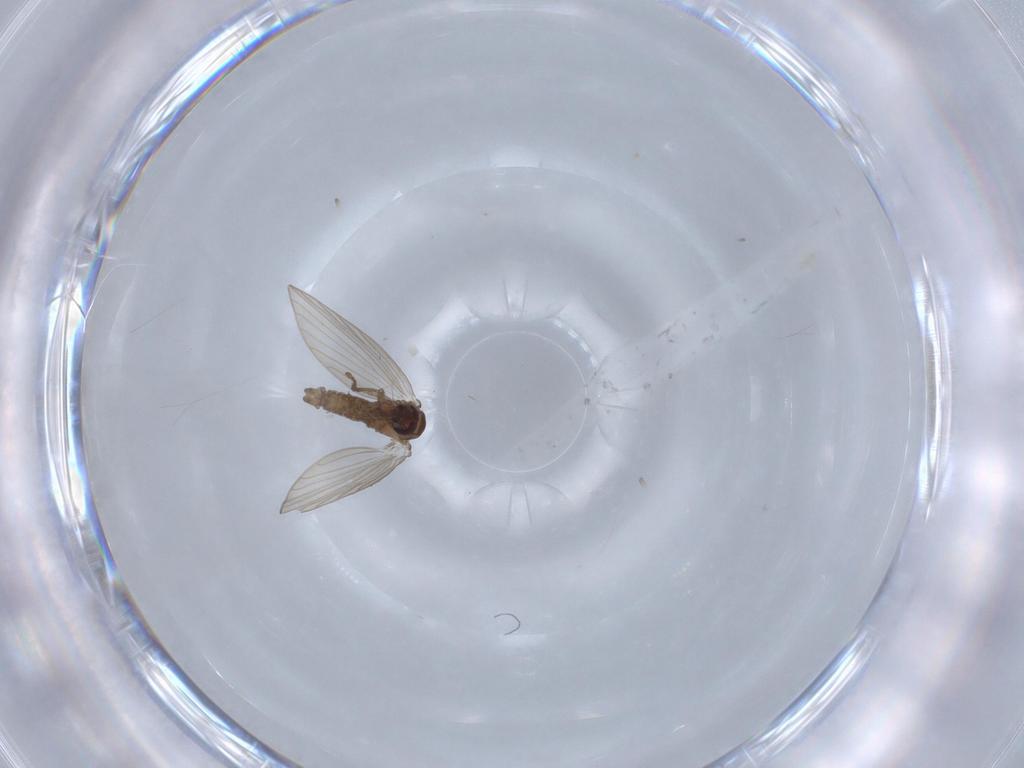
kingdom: Animalia
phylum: Arthropoda
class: Insecta
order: Diptera
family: Psychodidae
